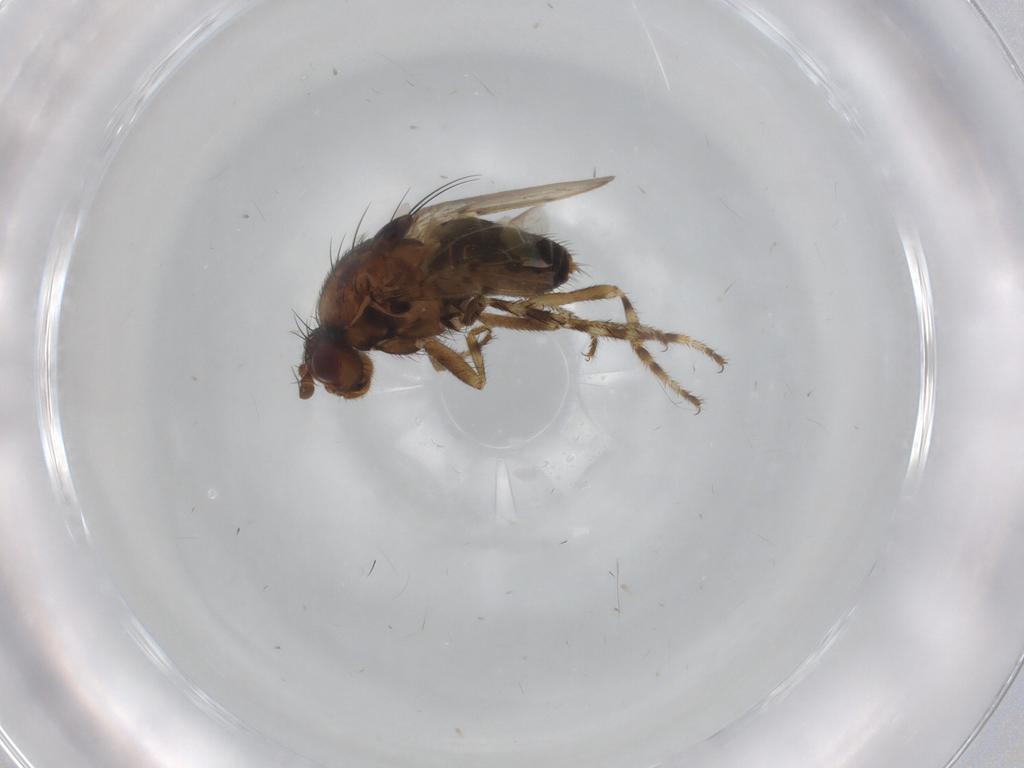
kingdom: Animalia
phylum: Arthropoda
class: Insecta
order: Diptera
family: Sphaeroceridae
